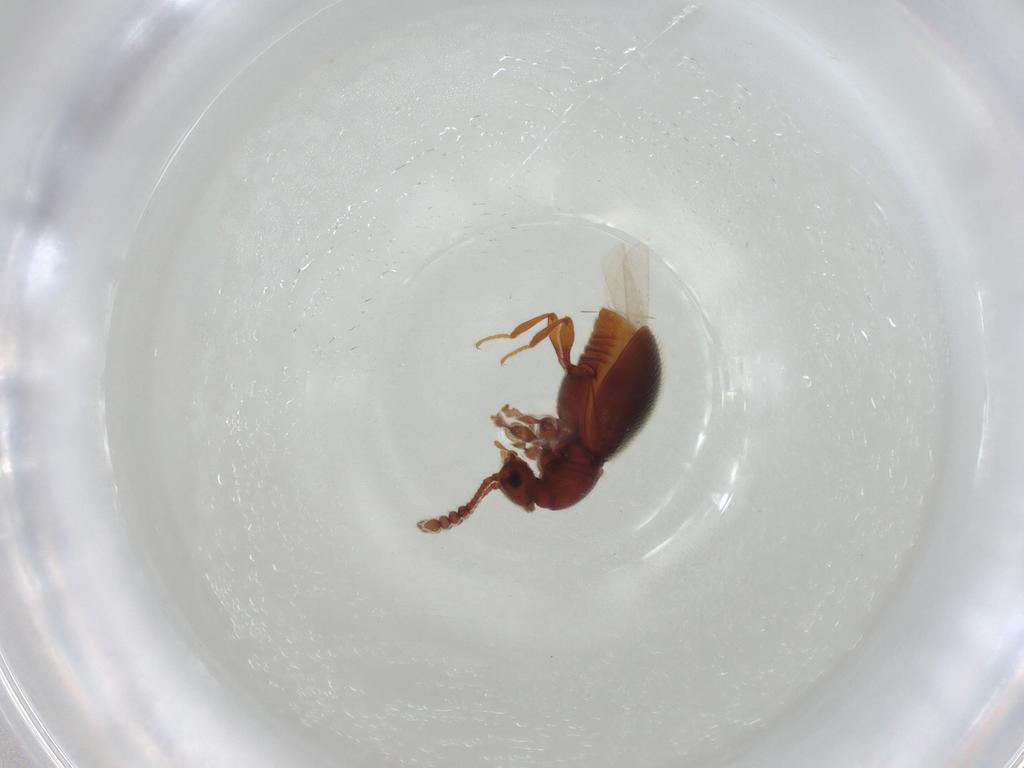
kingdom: Animalia
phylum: Arthropoda
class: Insecta
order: Coleoptera
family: Staphylinidae
